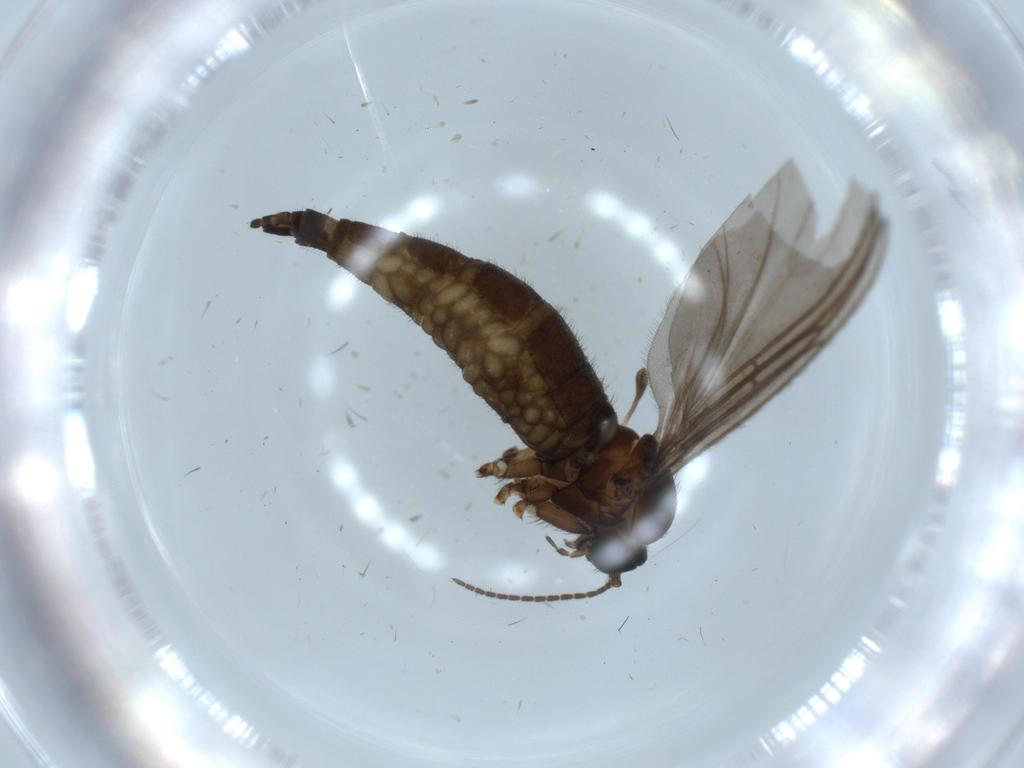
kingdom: Animalia
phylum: Arthropoda
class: Insecta
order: Diptera
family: Sciaridae
